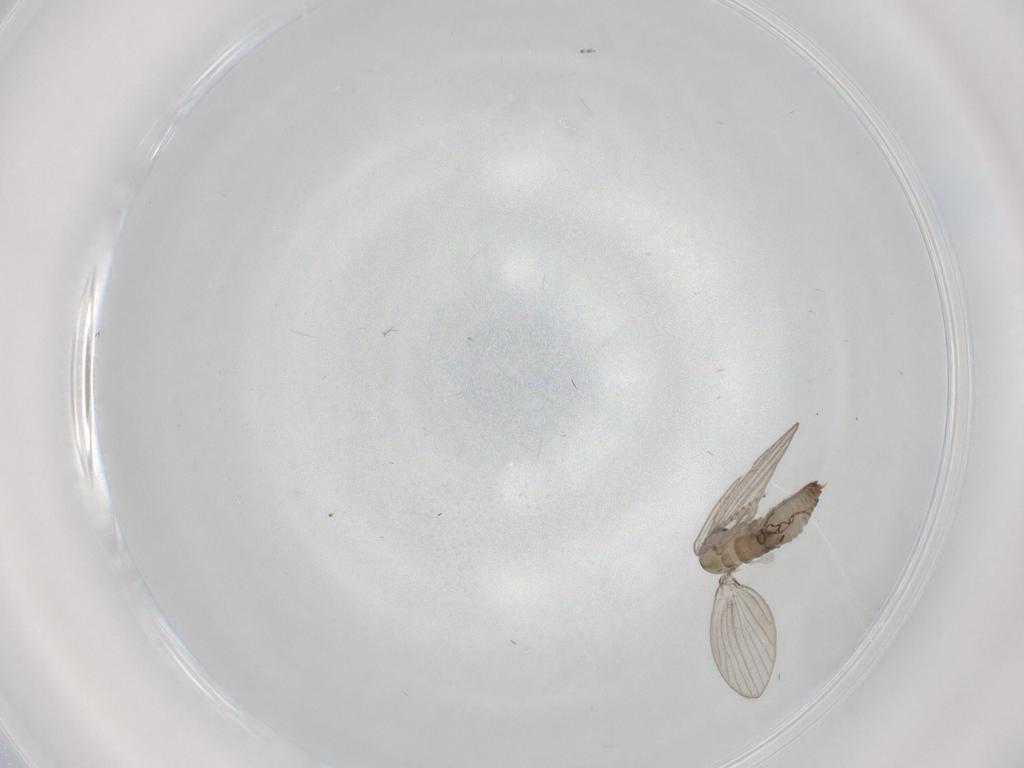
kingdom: Animalia
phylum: Arthropoda
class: Insecta
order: Diptera
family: Psychodidae
